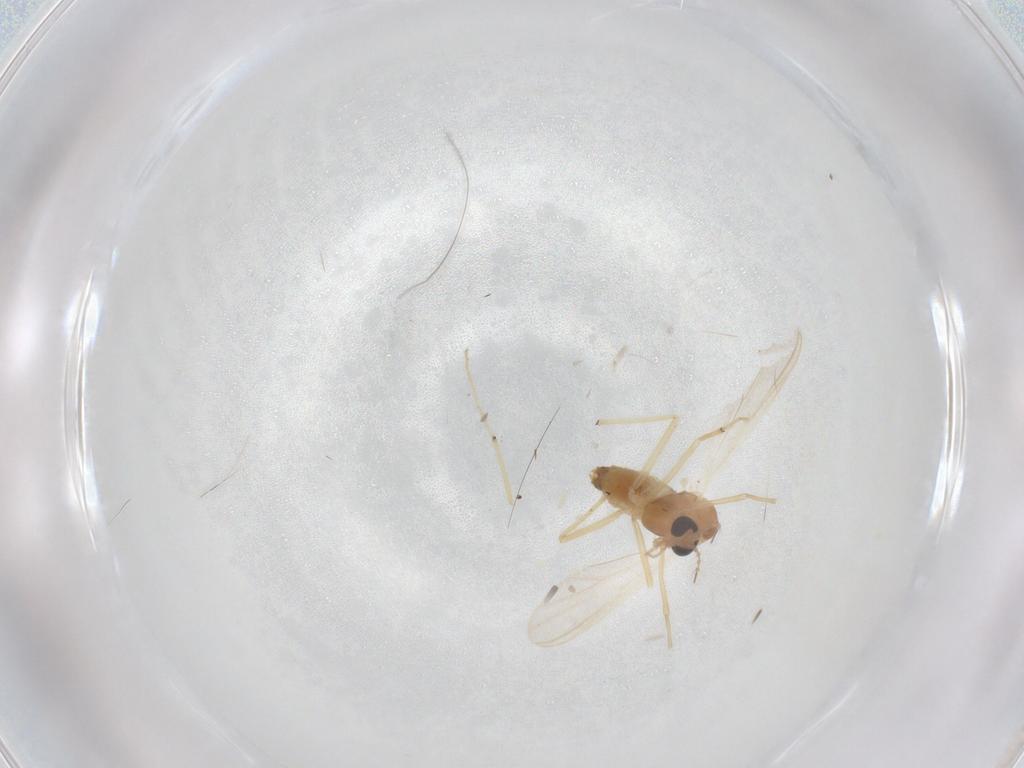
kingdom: Animalia
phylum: Arthropoda
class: Insecta
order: Diptera
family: Chironomidae
